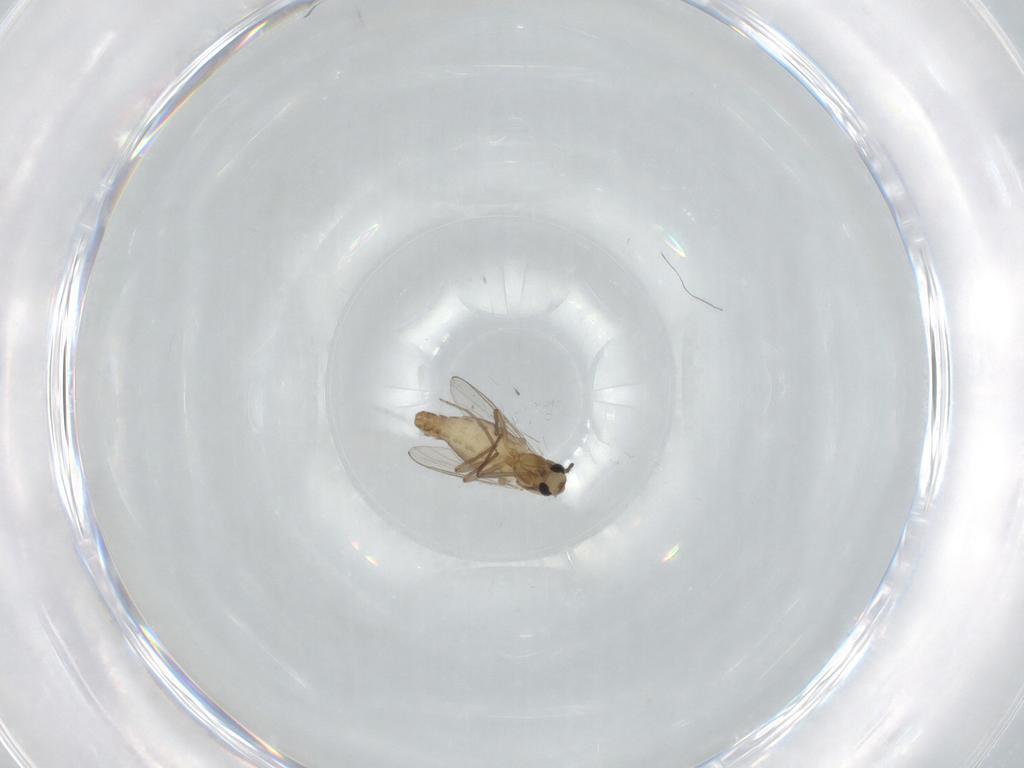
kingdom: Animalia
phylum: Arthropoda
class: Insecta
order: Diptera
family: Chironomidae
